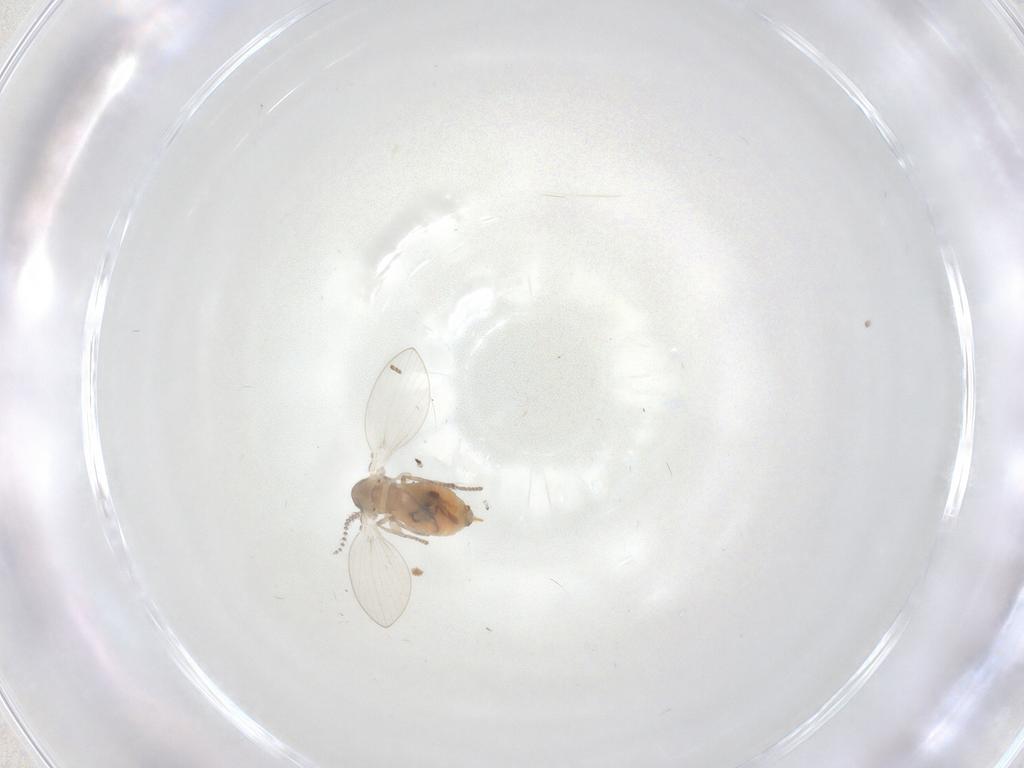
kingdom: Animalia
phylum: Arthropoda
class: Insecta
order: Diptera
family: Psychodidae
